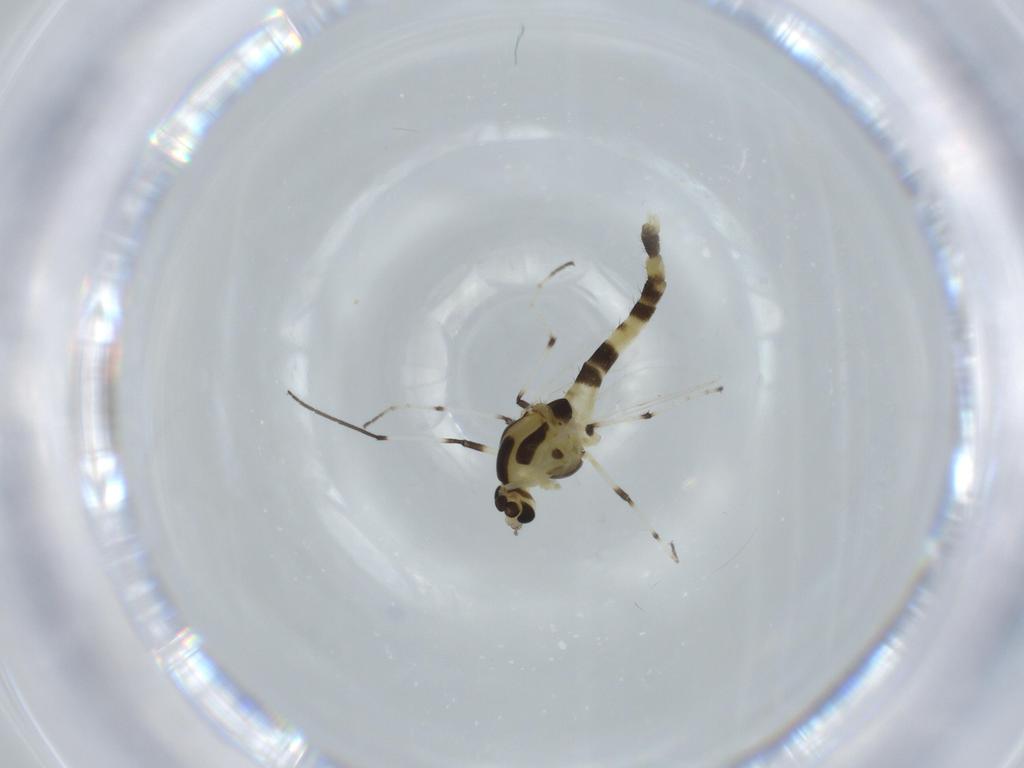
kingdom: Animalia
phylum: Arthropoda
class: Insecta
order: Diptera
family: Chironomidae
